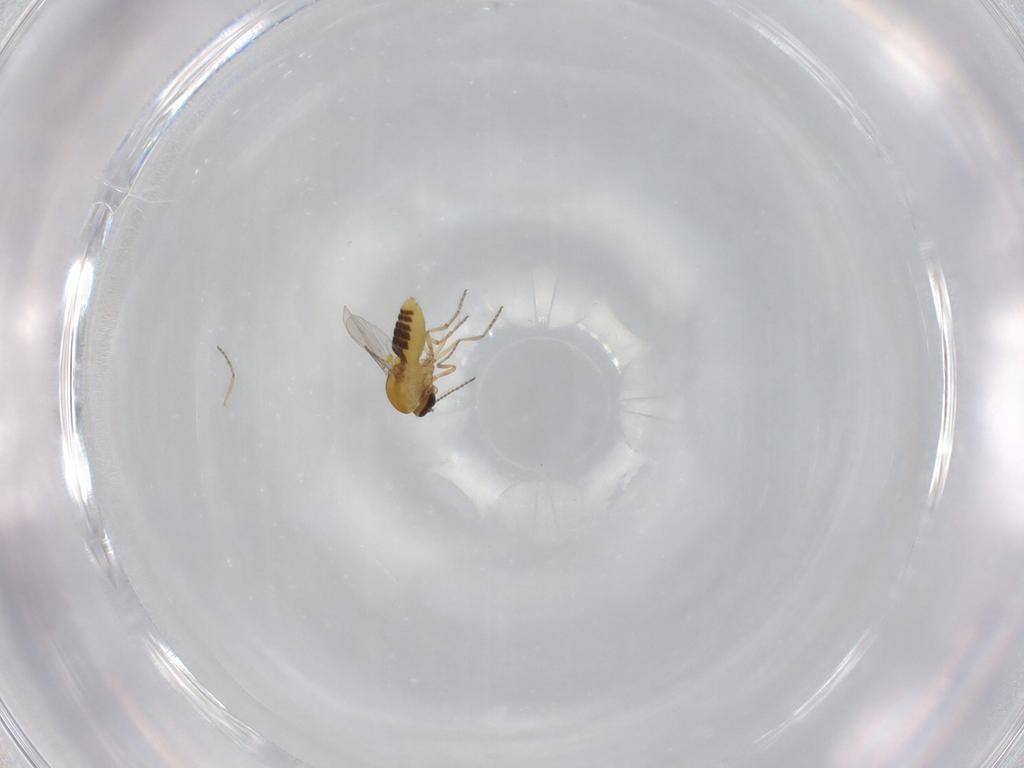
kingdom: Animalia
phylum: Arthropoda
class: Insecta
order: Diptera
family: Ceratopogonidae
